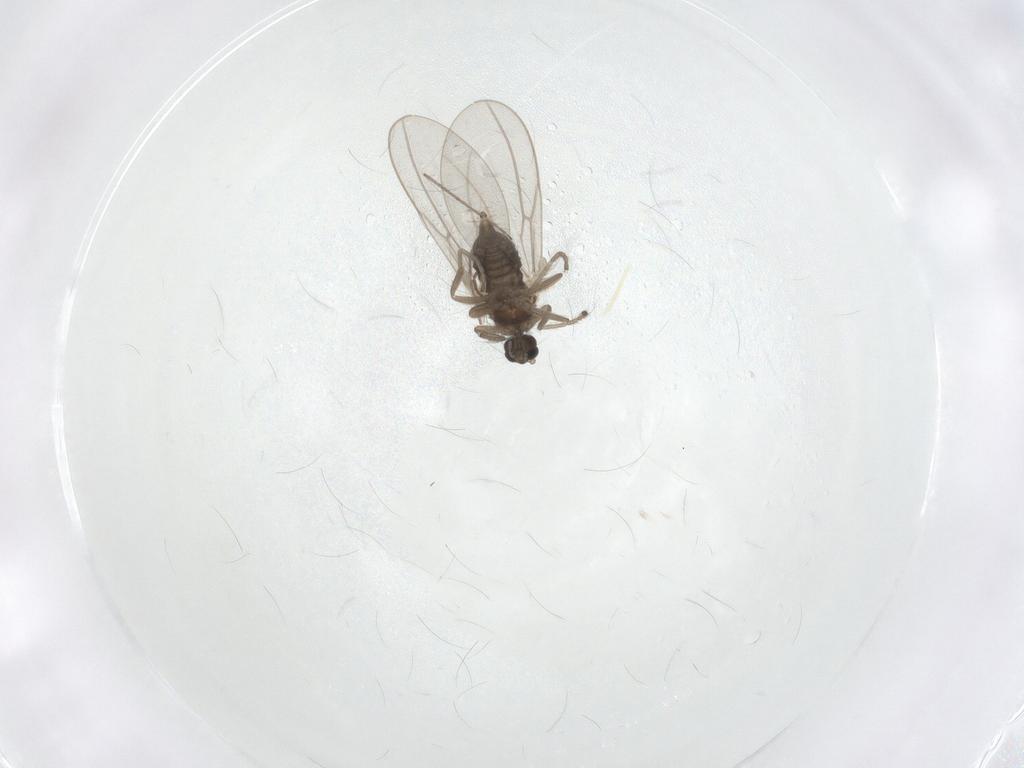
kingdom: Animalia
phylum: Arthropoda
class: Insecta
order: Diptera
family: Cecidomyiidae
